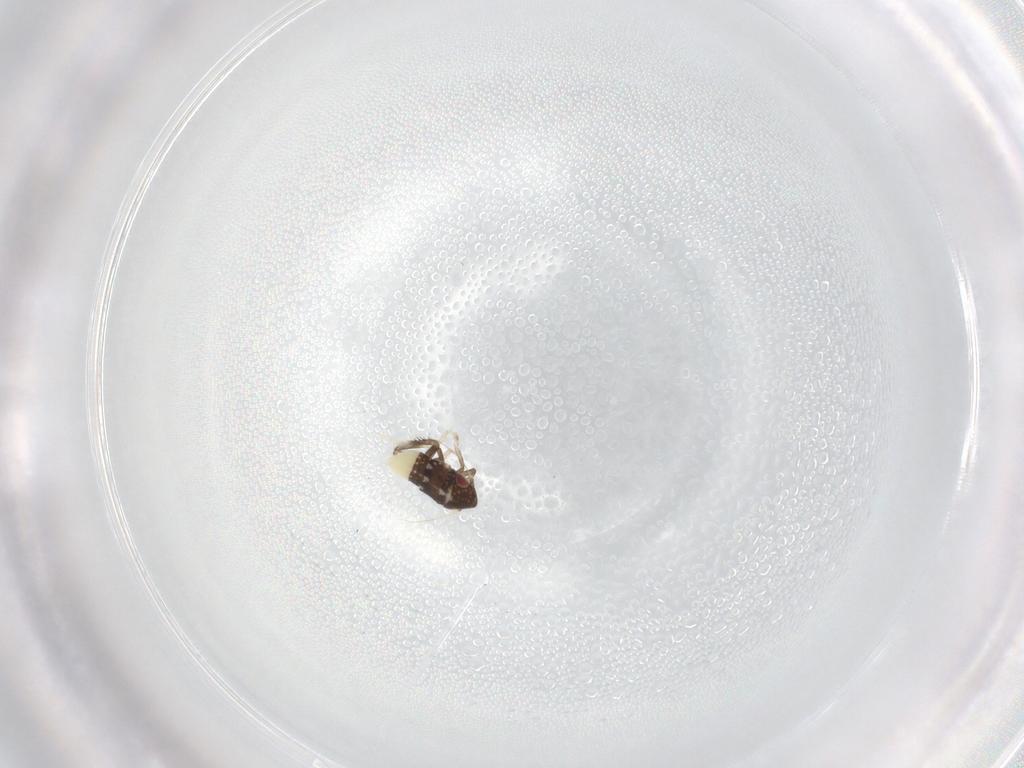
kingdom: Animalia
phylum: Arthropoda
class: Insecta
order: Hemiptera
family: Cicadellidae
